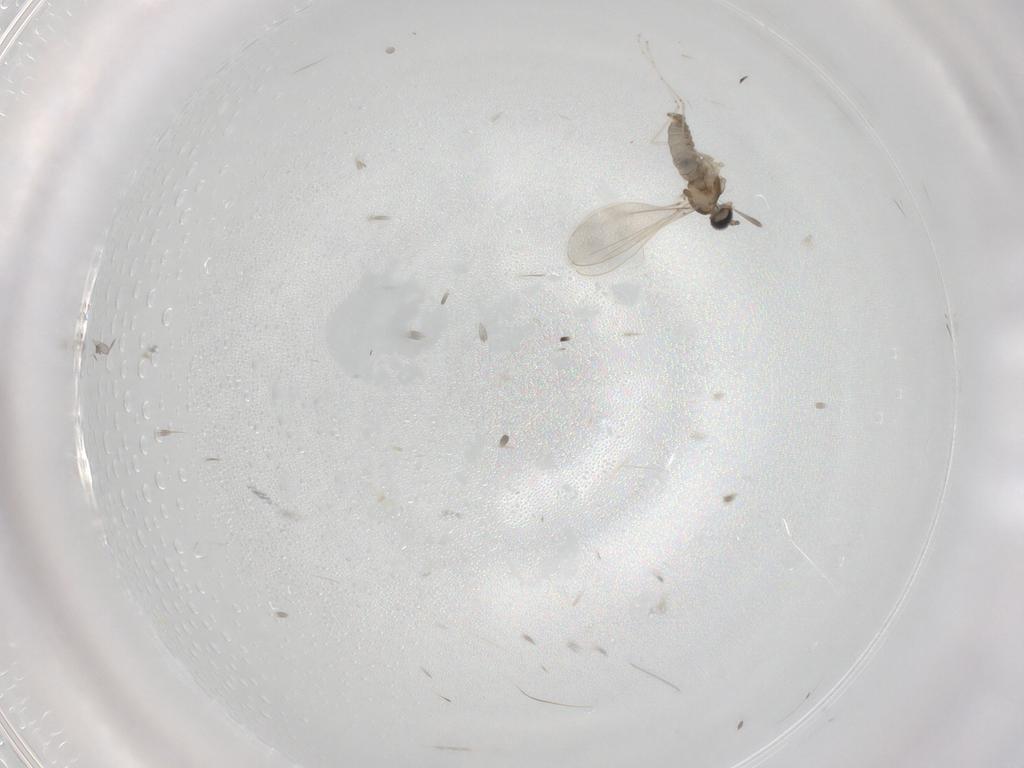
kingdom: Animalia
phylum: Arthropoda
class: Insecta
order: Diptera
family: Cecidomyiidae
